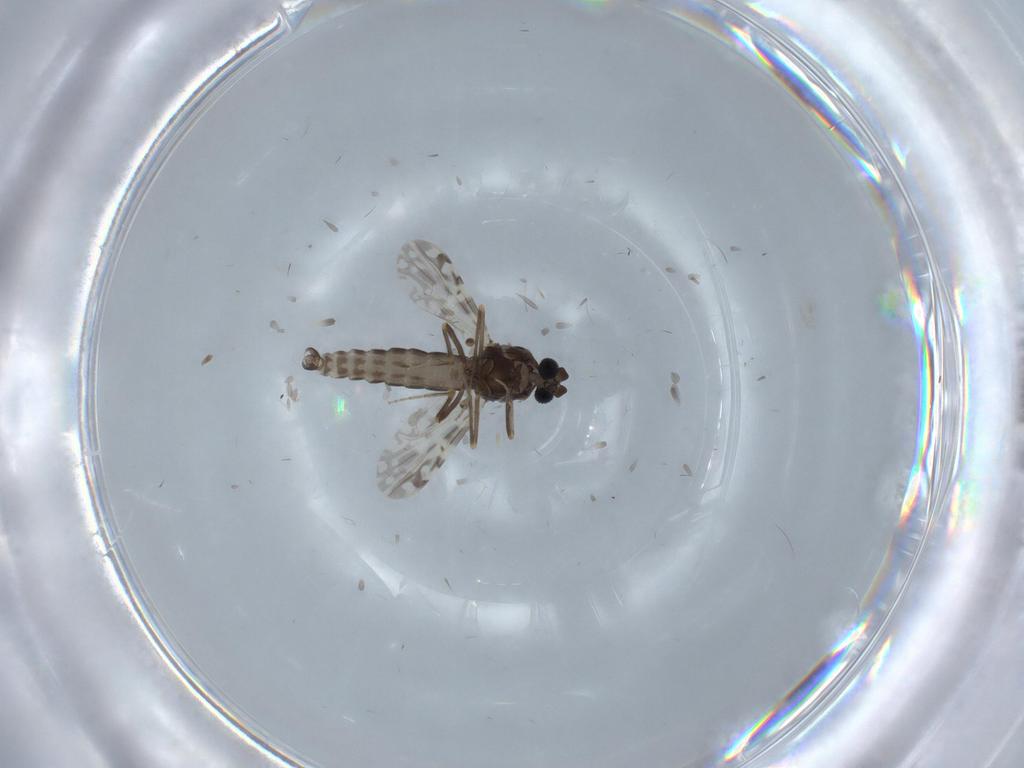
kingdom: Animalia
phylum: Arthropoda
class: Insecta
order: Diptera
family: Ceratopogonidae
